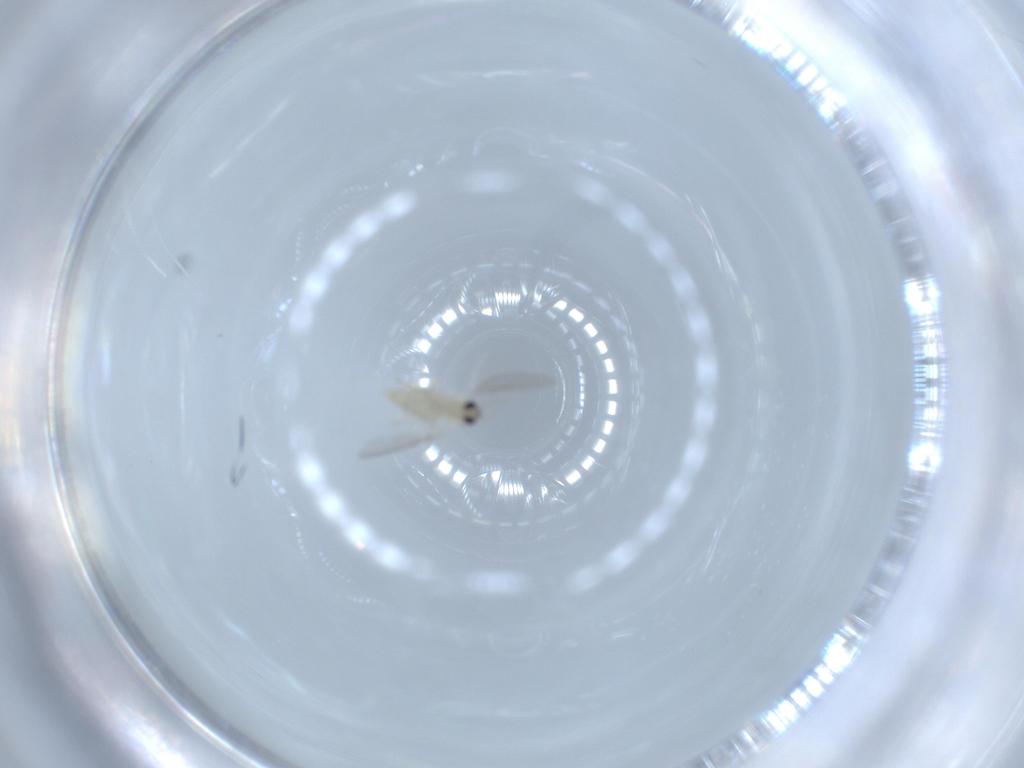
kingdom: Animalia
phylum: Arthropoda
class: Insecta
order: Diptera
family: Cecidomyiidae
